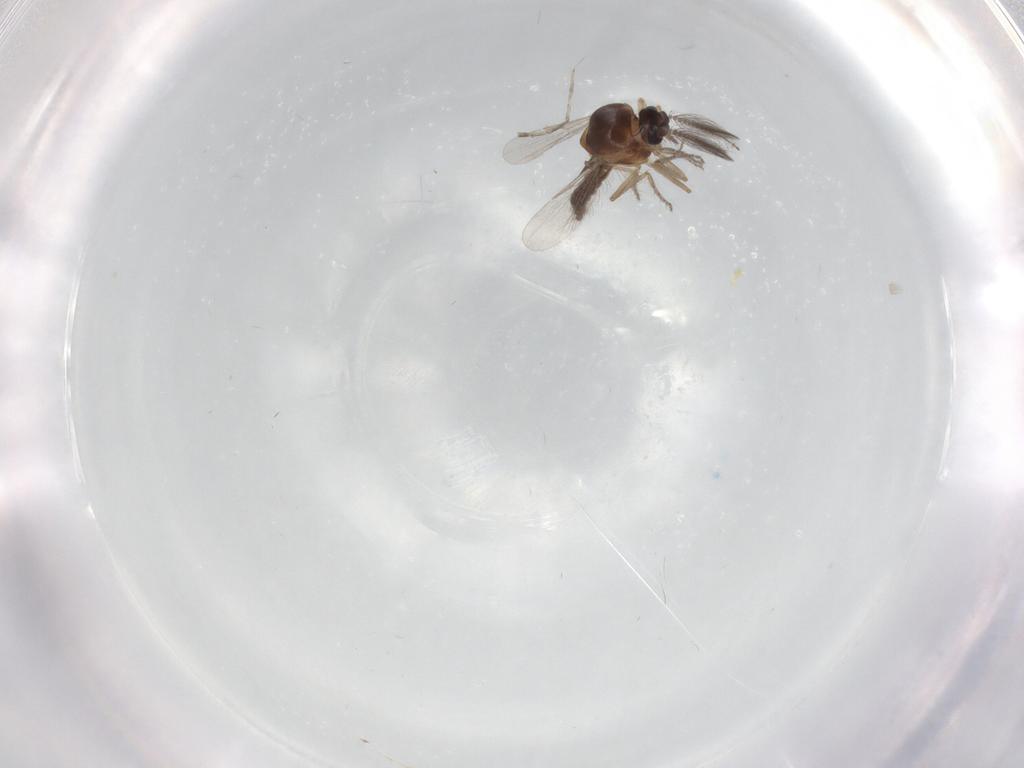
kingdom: Animalia
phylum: Arthropoda
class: Insecta
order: Diptera
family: Ceratopogonidae
